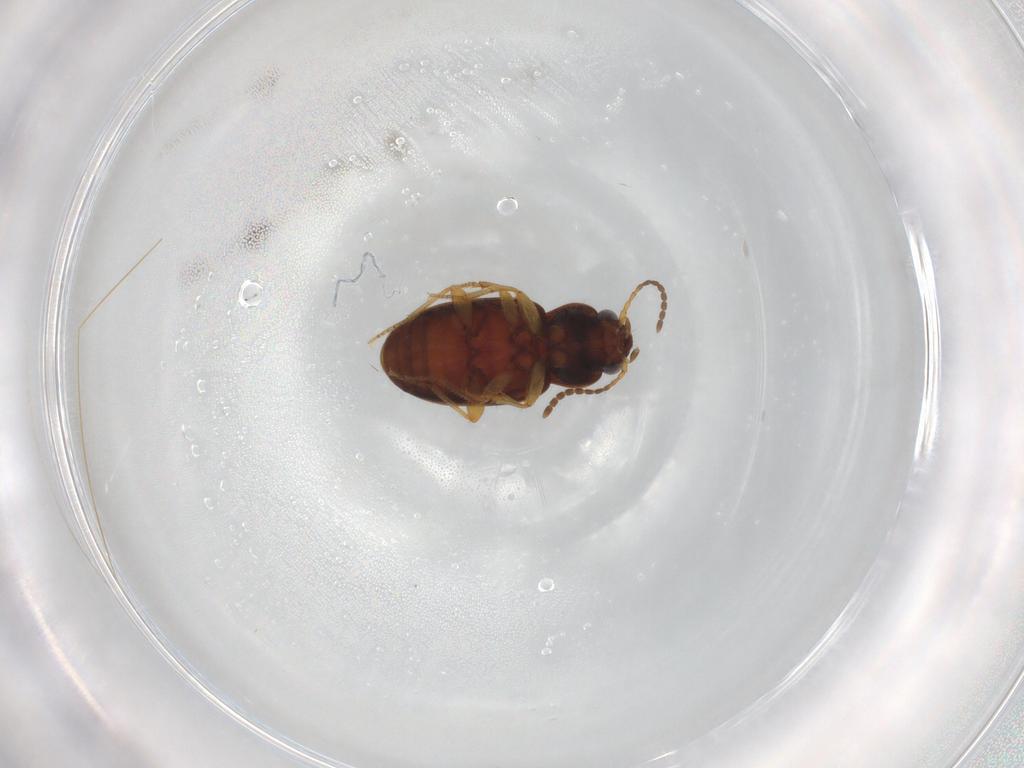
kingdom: Animalia
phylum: Arthropoda
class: Insecta
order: Coleoptera
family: Carabidae
